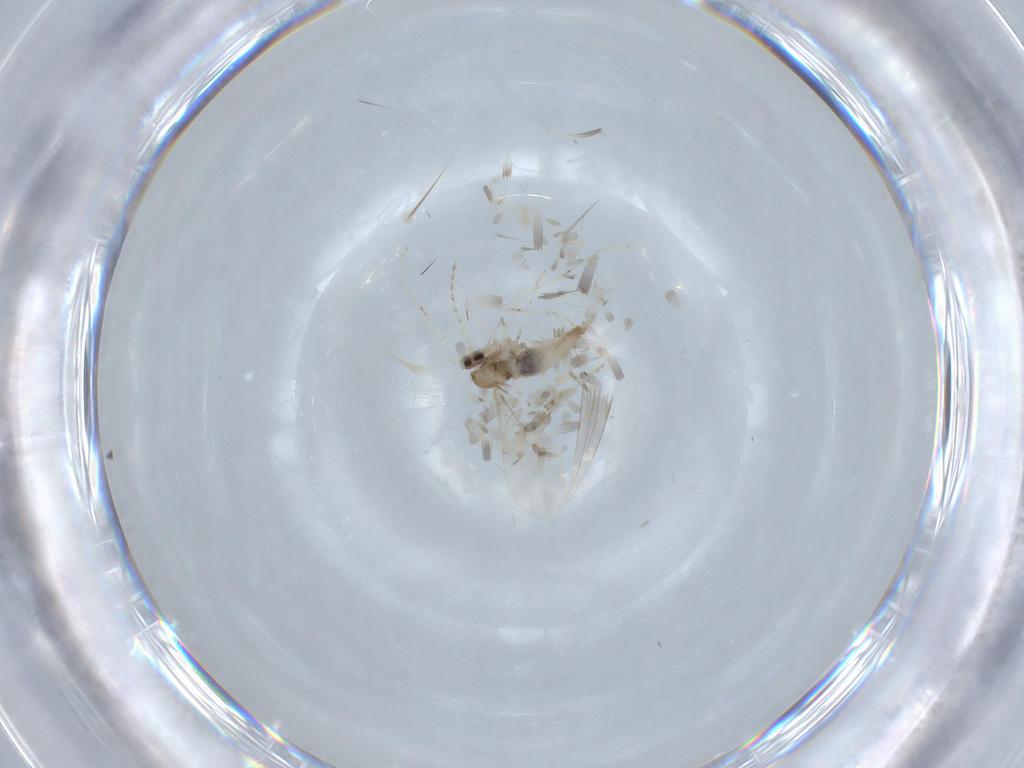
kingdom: Animalia
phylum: Arthropoda
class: Insecta
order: Diptera
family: Cecidomyiidae
